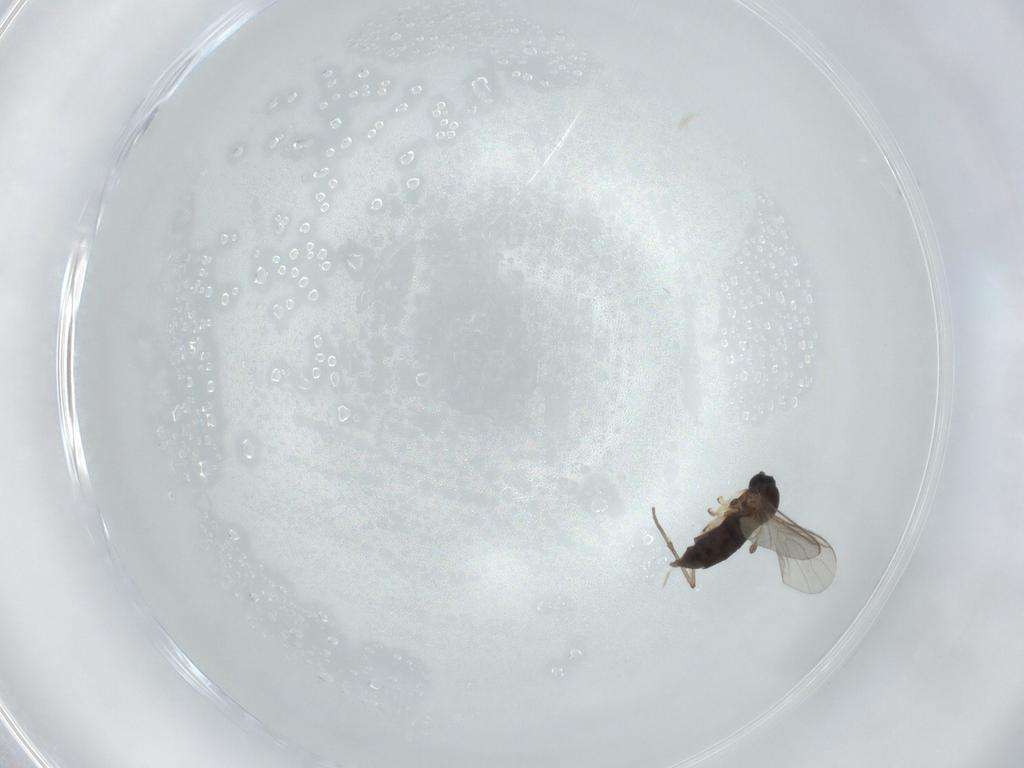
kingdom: Animalia
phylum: Arthropoda
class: Insecta
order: Diptera
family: Sciaridae
